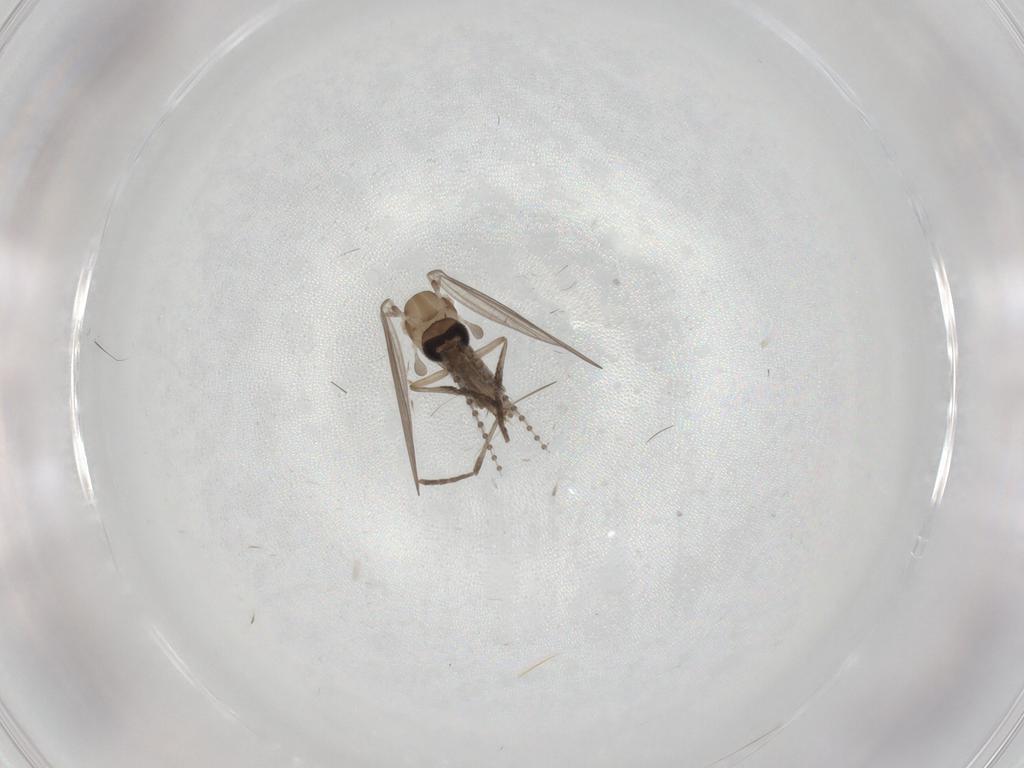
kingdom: Animalia
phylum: Arthropoda
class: Insecta
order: Diptera
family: Psychodidae
